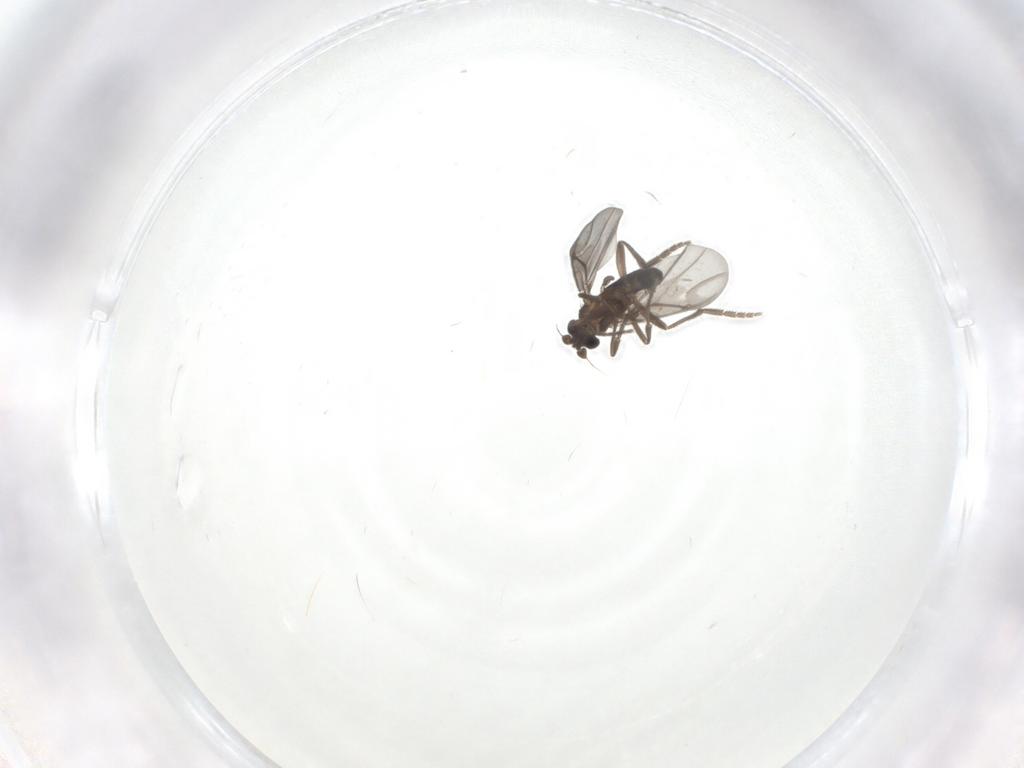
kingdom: Animalia
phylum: Arthropoda
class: Insecta
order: Diptera
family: Phoridae
